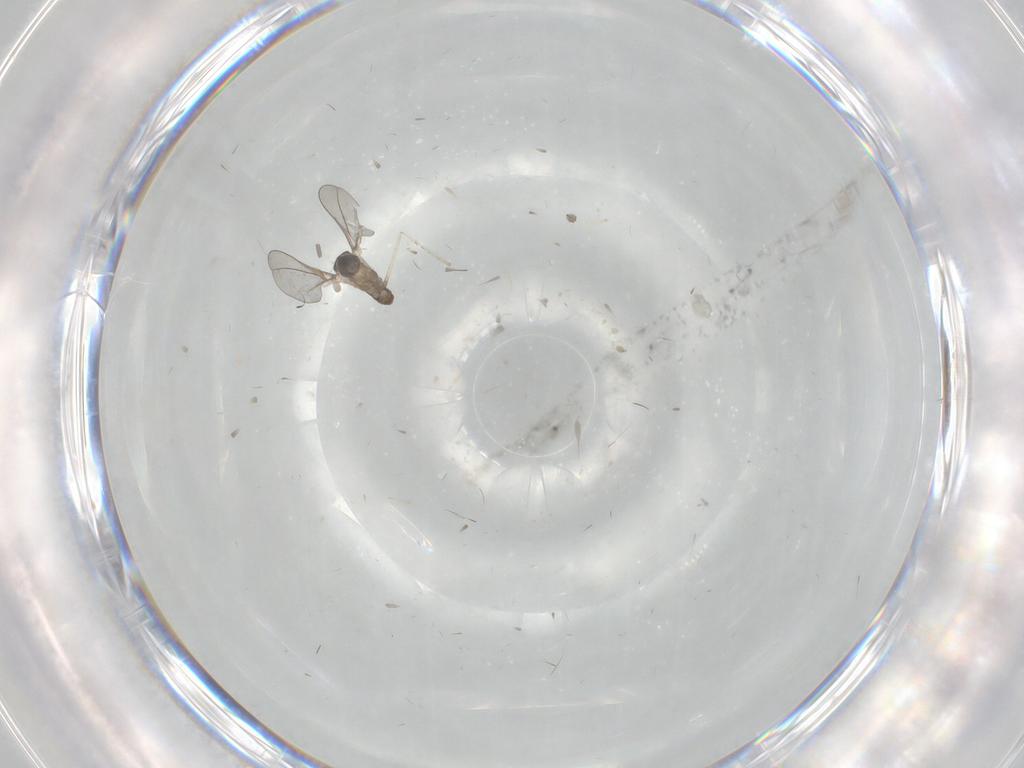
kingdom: Animalia
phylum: Arthropoda
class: Insecta
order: Diptera
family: Cecidomyiidae
